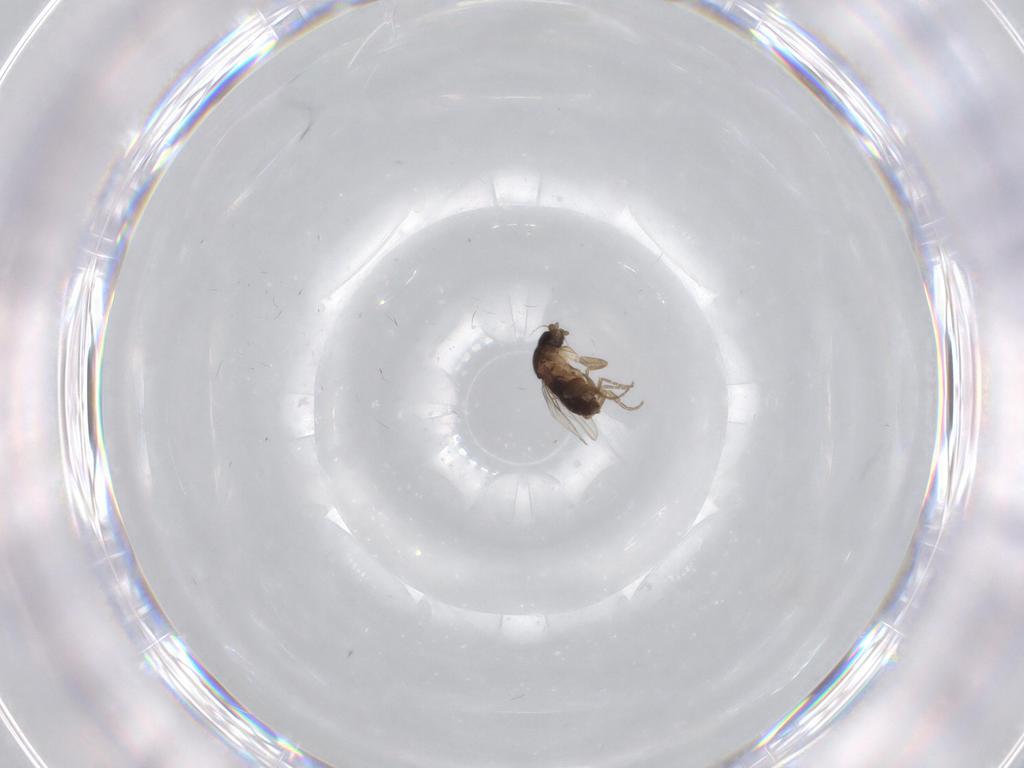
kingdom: Animalia
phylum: Arthropoda
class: Insecta
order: Diptera
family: Phoridae
